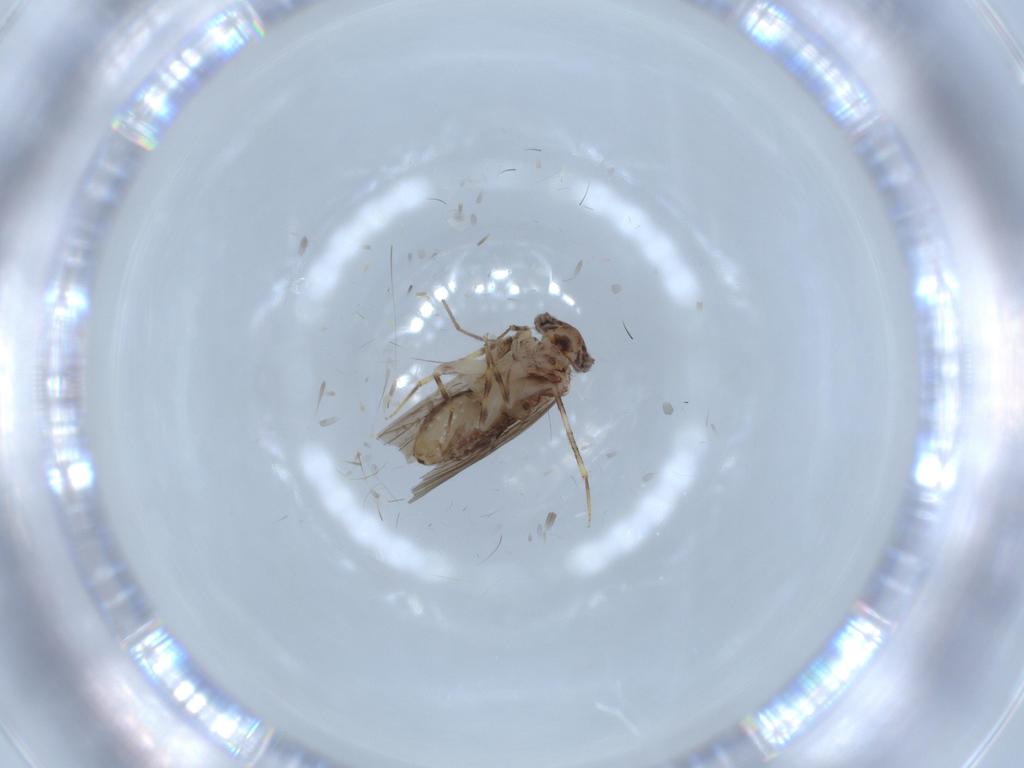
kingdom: Animalia
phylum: Arthropoda
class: Insecta
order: Psocodea
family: Lepidopsocidae
